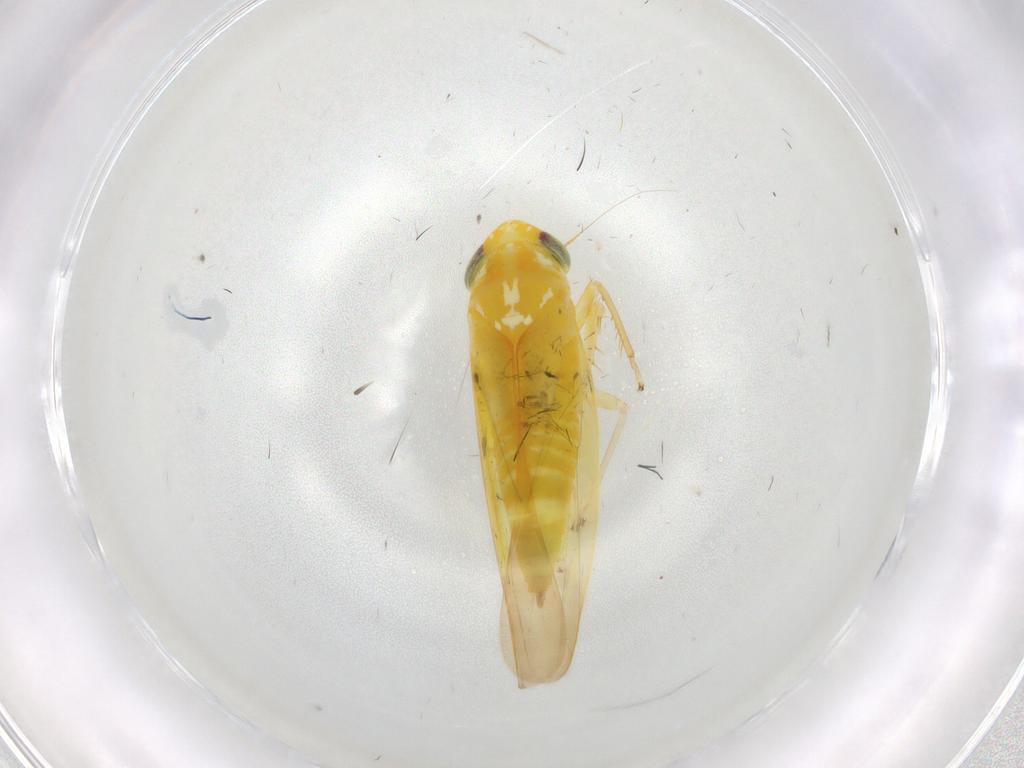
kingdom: Animalia
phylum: Arthropoda
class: Insecta
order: Hemiptera
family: Cicadellidae
